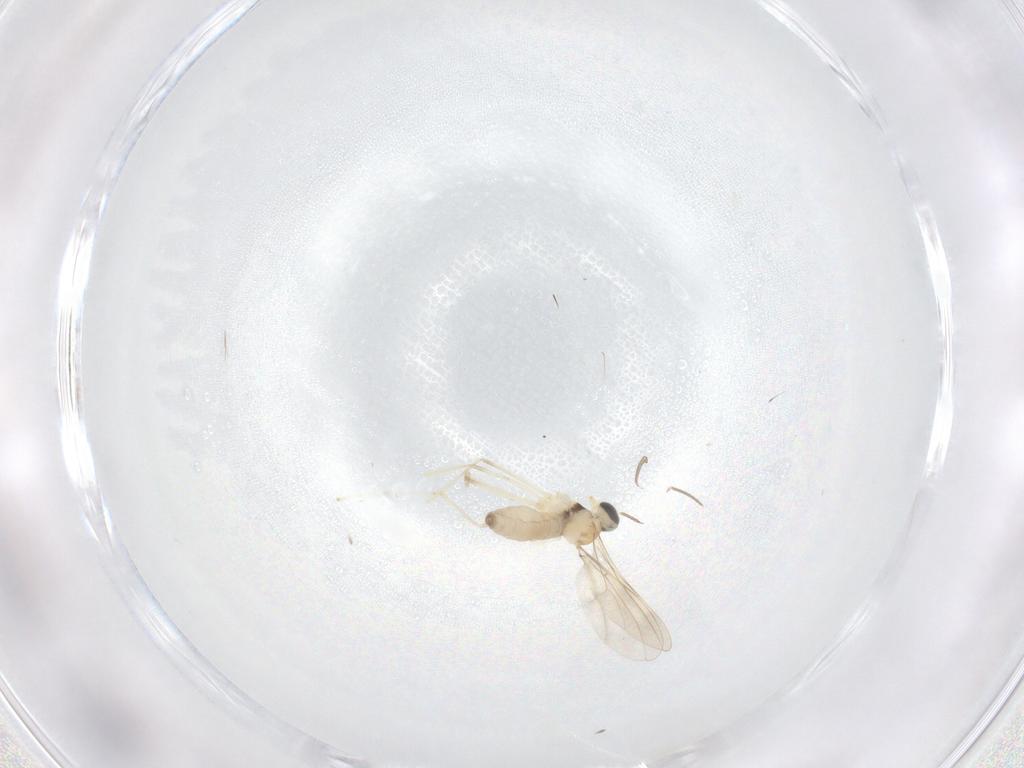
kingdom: Animalia
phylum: Arthropoda
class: Insecta
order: Diptera
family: Cecidomyiidae
